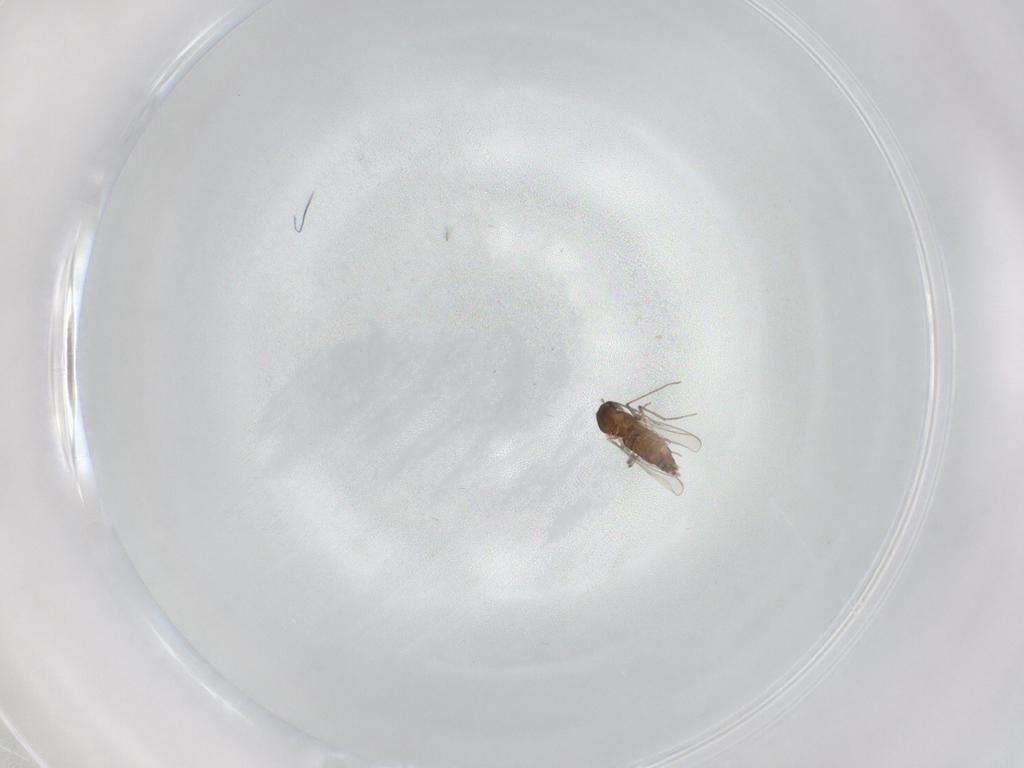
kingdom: Animalia
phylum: Arthropoda
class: Insecta
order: Diptera
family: Chironomidae
